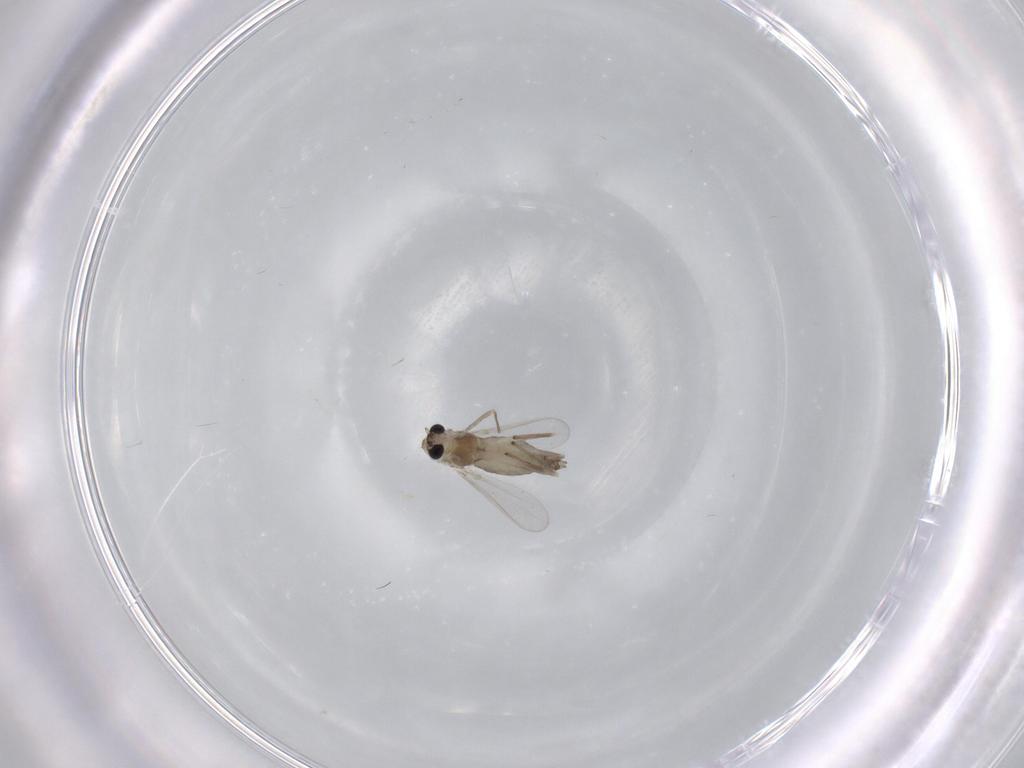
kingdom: Animalia
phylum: Arthropoda
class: Insecta
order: Diptera
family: Chironomidae
